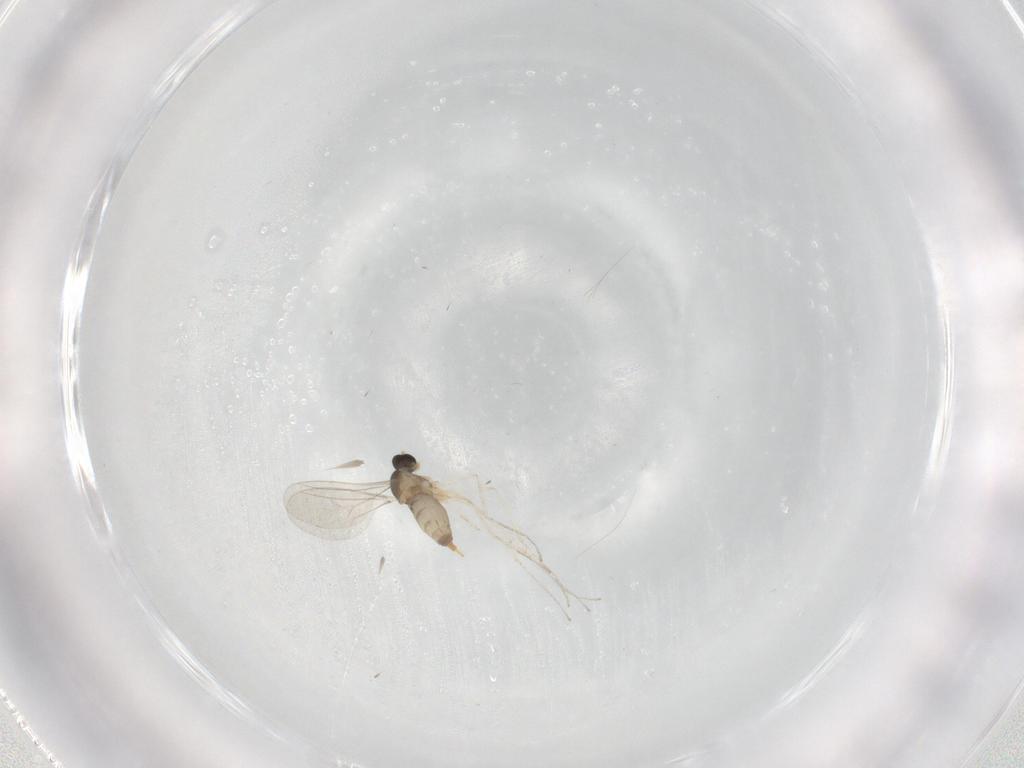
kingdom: Animalia
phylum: Arthropoda
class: Insecta
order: Diptera
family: Cecidomyiidae
